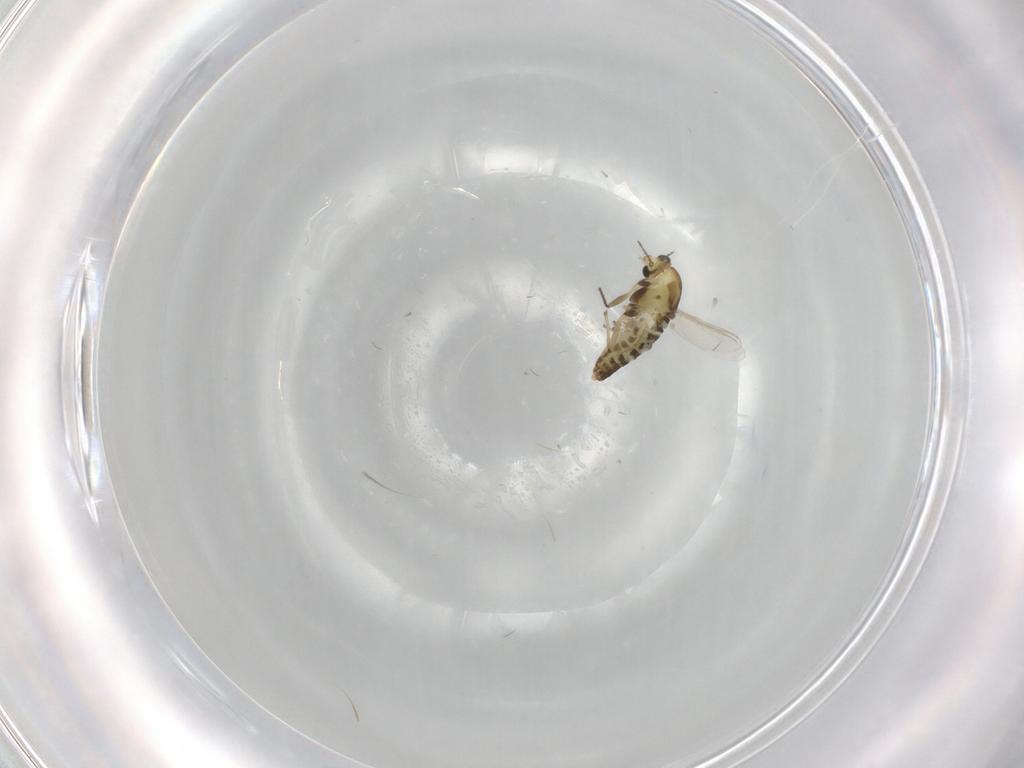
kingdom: Animalia
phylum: Arthropoda
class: Insecta
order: Diptera
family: Chironomidae
